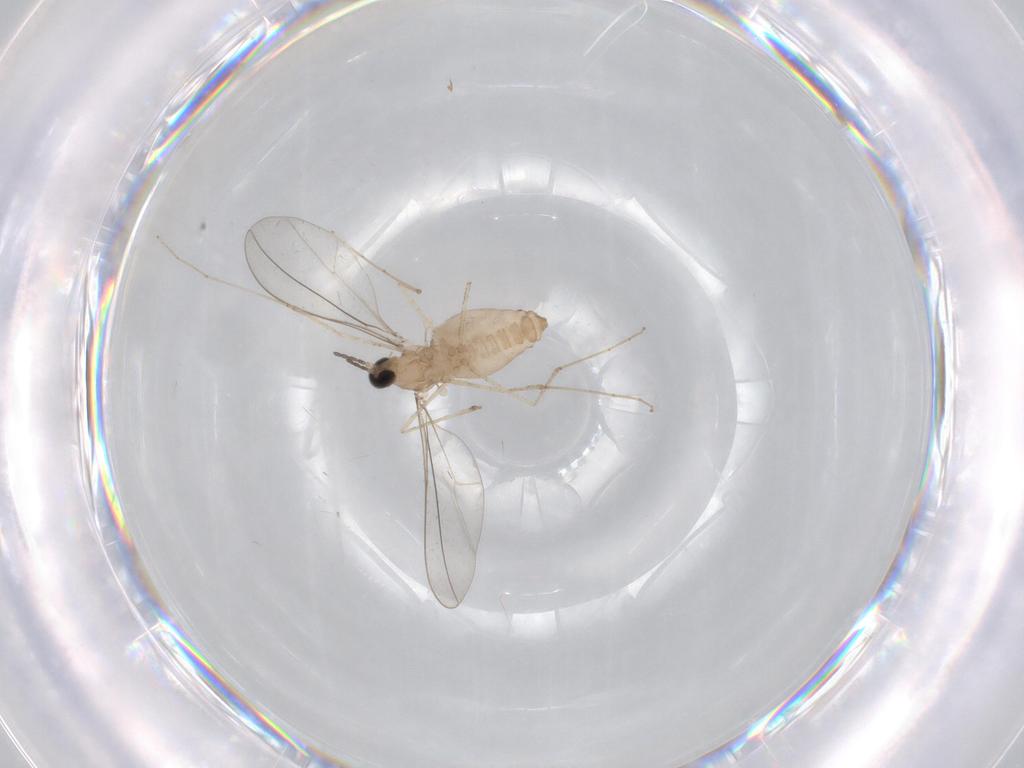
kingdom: Animalia
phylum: Arthropoda
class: Insecta
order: Diptera
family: Cecidomyiidae
